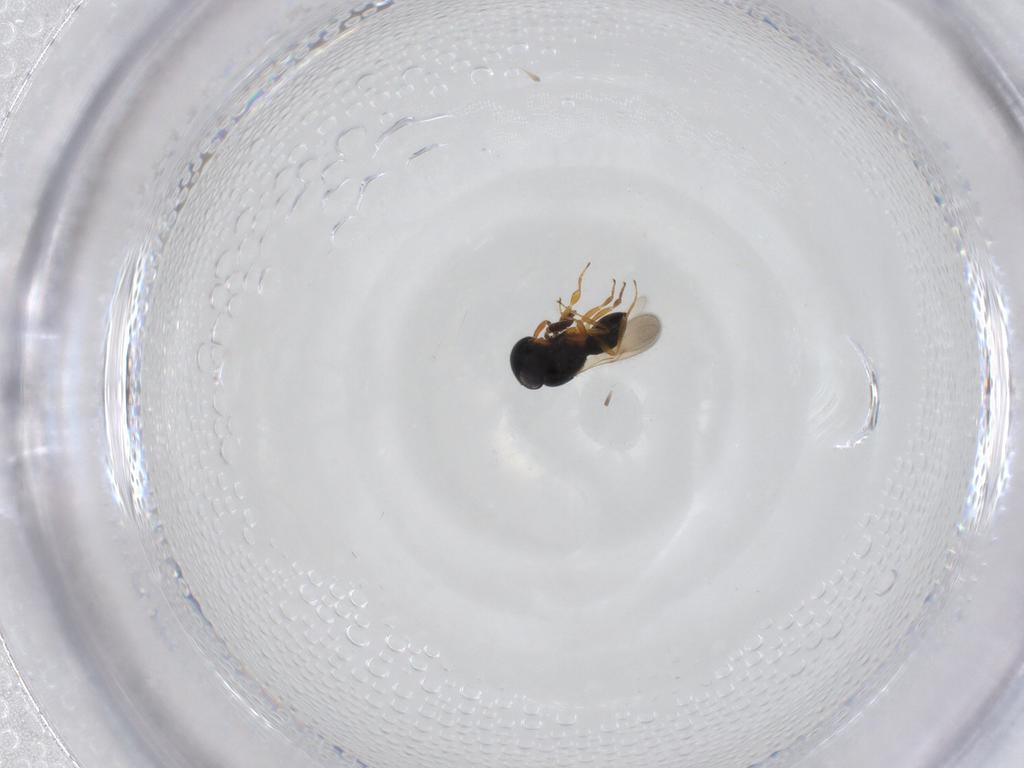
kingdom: Animalia
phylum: Arthropoda
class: Insecta
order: Hymenoptera
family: Scelionidae
